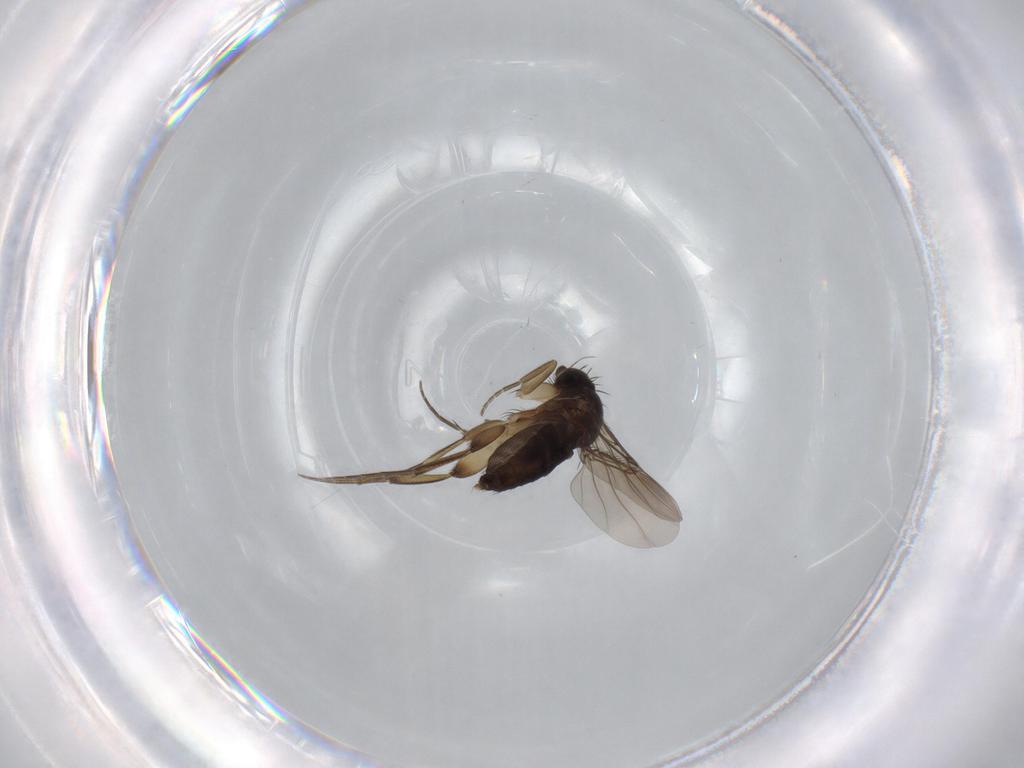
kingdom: Animalia
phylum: Arthropoda
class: Insecta
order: Diptera
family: Phoridae
